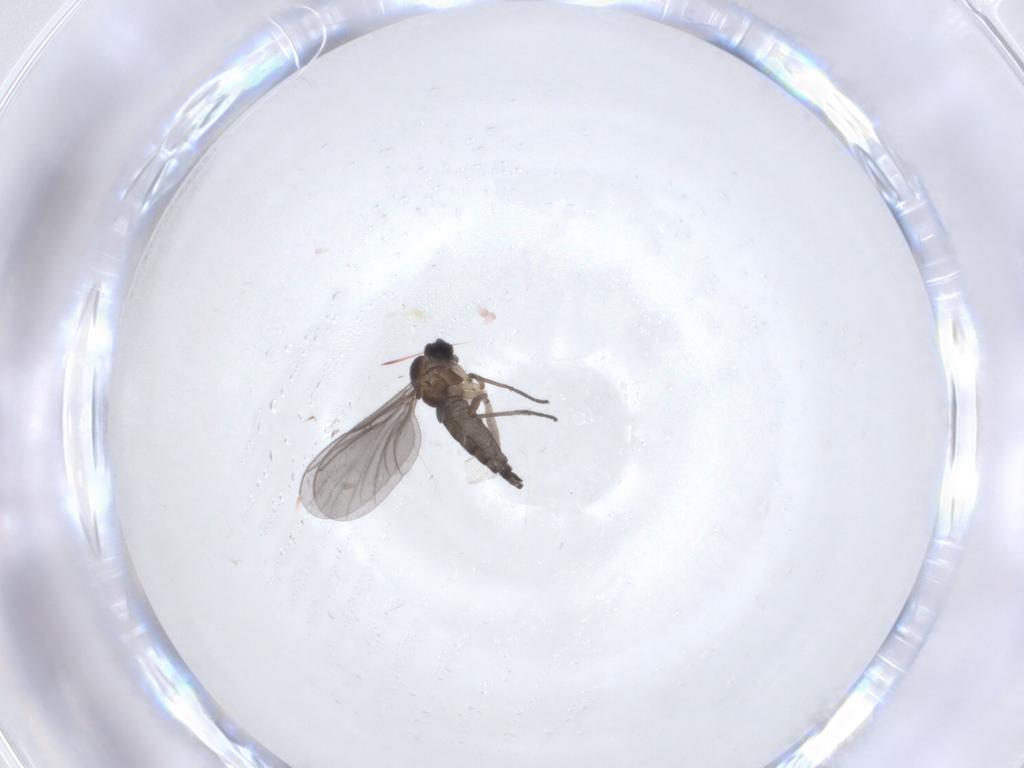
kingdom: Animalia
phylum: Arthropoda
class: Insecta
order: Diptera
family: Sciaridae
